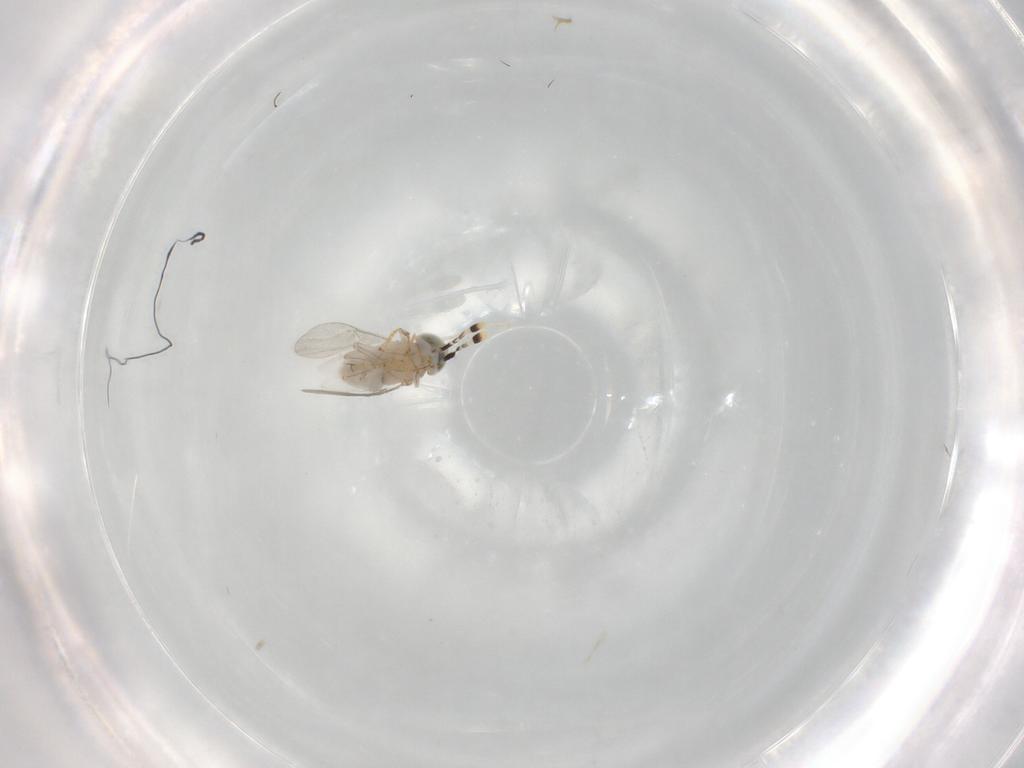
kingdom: Animalia
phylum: Arthropoda
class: Insecta
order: Hymenoptera
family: Encyrtidae
